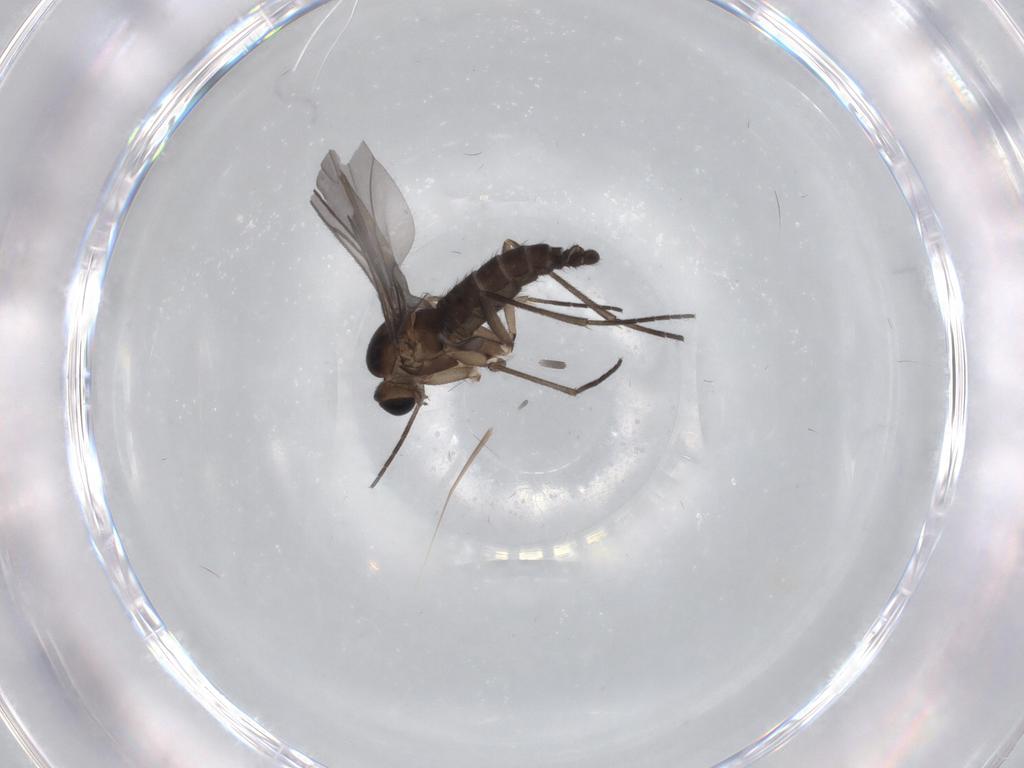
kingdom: Animalia
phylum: Arthropoda
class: Insecta
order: Diptera
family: Sciaridae
